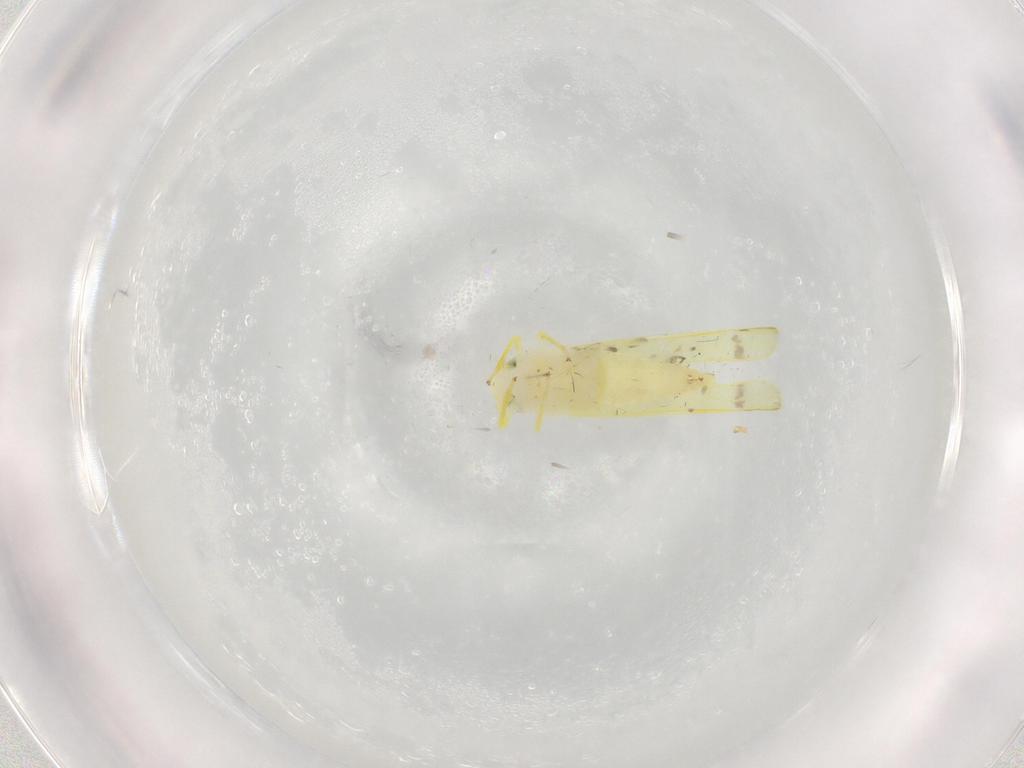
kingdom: Animalia
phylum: Arthropoda
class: Insecta
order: Hemiptera
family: Cicadellidae
